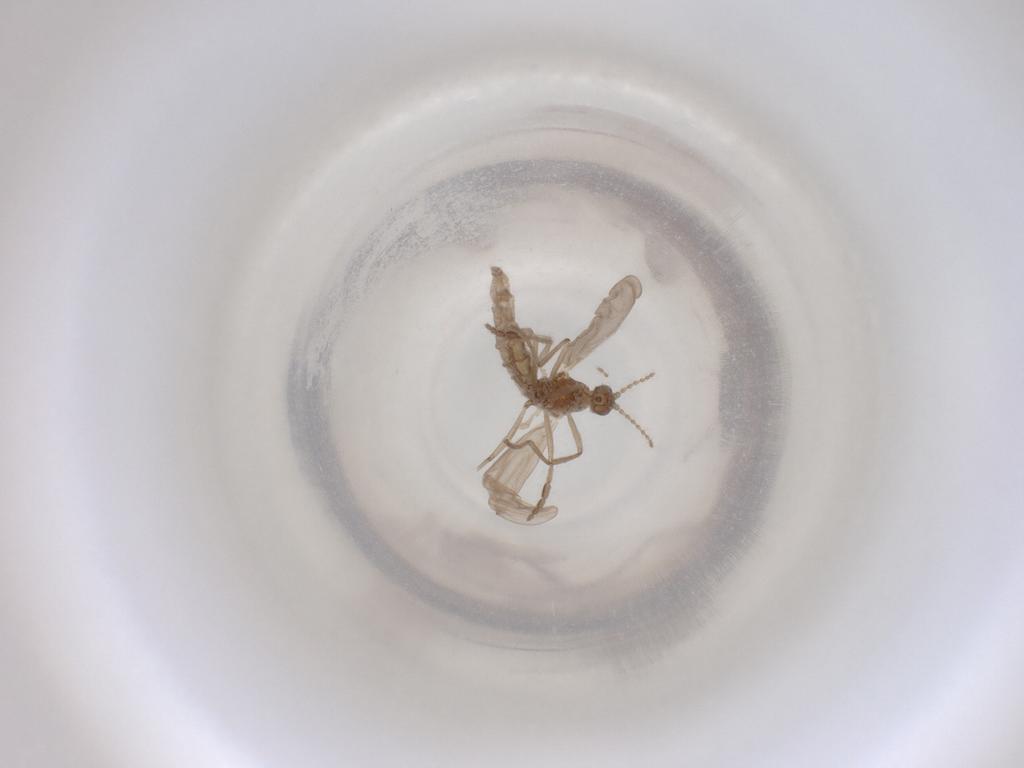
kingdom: Animalia
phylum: Arthropoda
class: Insecta
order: Diptera
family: Cecidomyiidae
